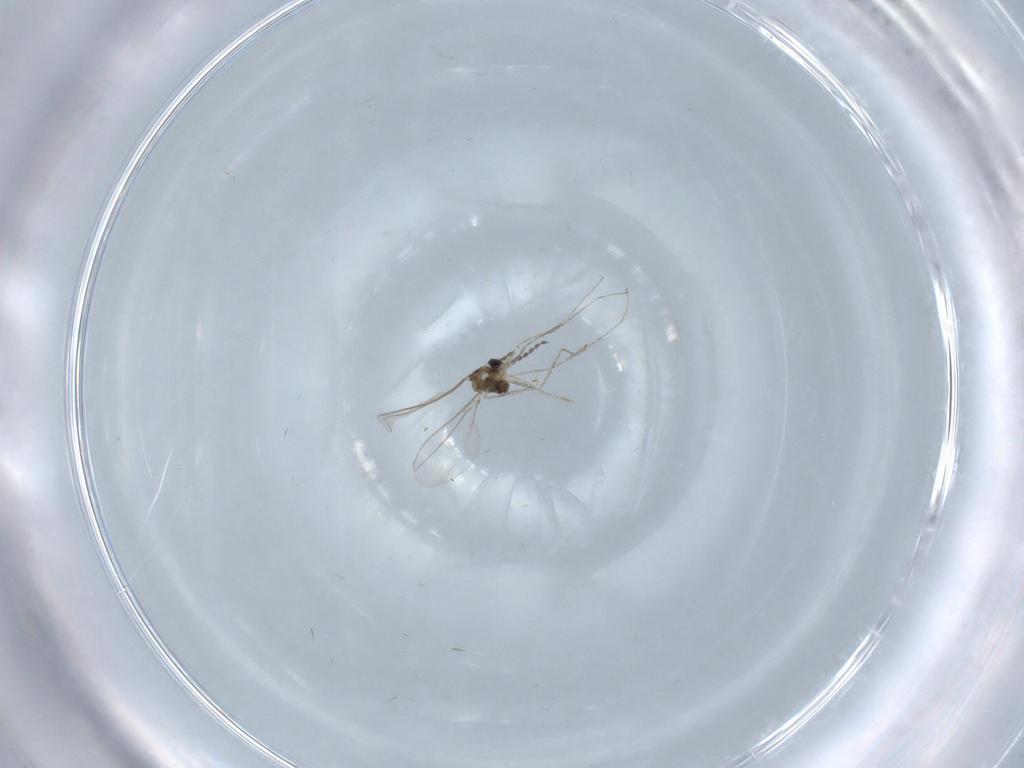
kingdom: Animalia
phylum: Arthropoda
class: Insecta
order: Diptera
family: Cecidomyiidae
